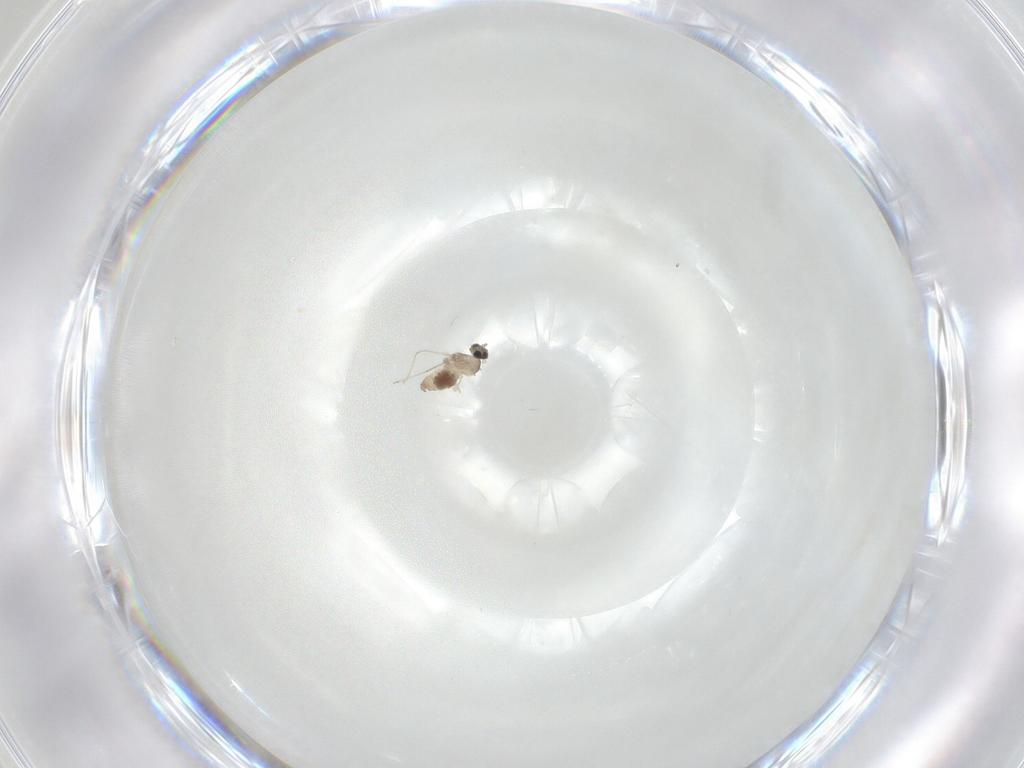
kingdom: Animalia
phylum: Arthropoda
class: Insecta
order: Diptera
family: Cecidomyiidae
